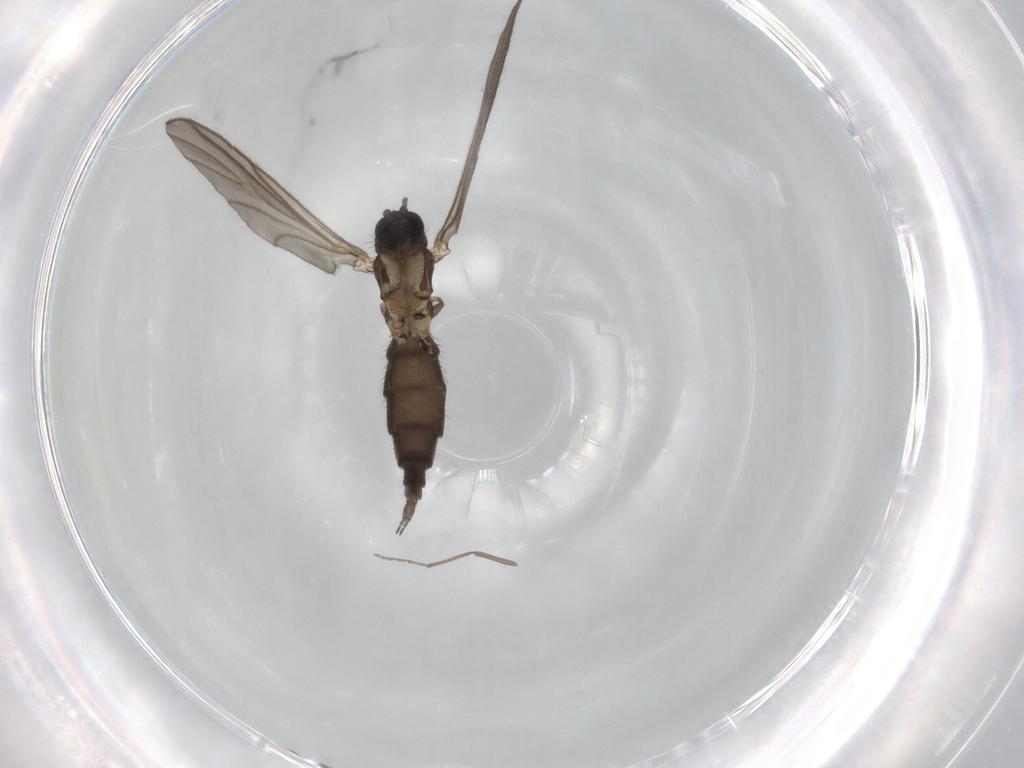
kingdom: Animalia
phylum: Arthropoda
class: Insecta
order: Diptera
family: Sciaridae
